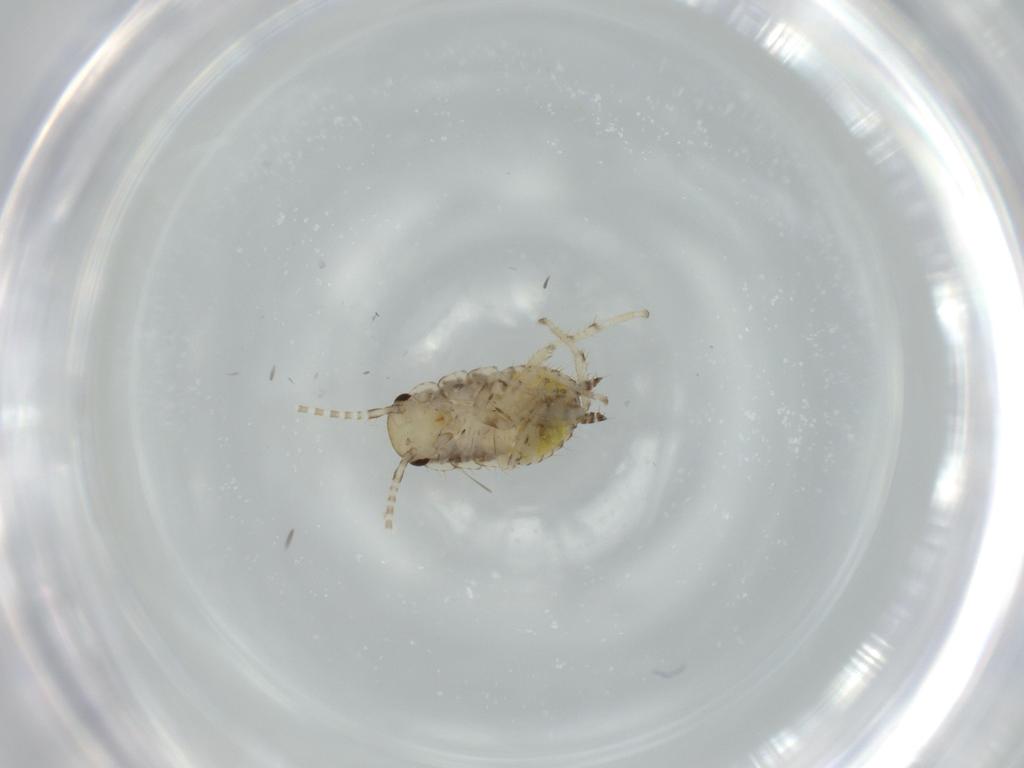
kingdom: Animalia
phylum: Arthropoda
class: Insecta
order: Blattodea
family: Ectobiidae
